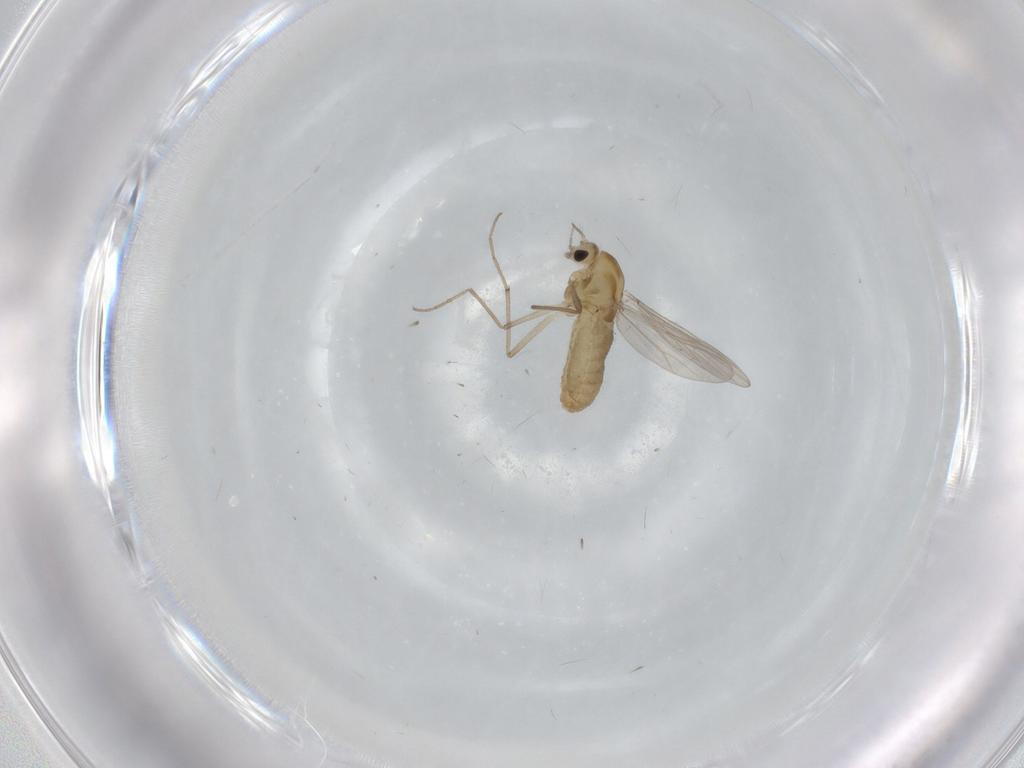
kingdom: Animalia
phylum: Arthropoda
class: Insecta
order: Diptera
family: Chironomidae
